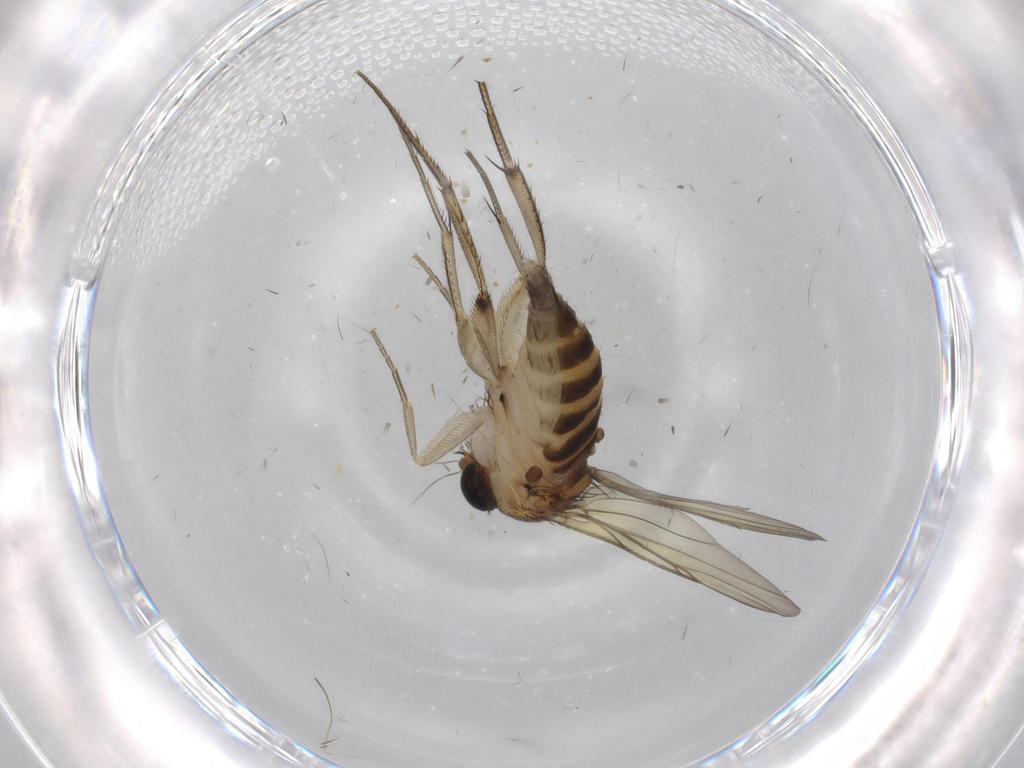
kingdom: Animalia
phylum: Arthropoda
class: Insecta
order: Diptera
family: Phoridae
